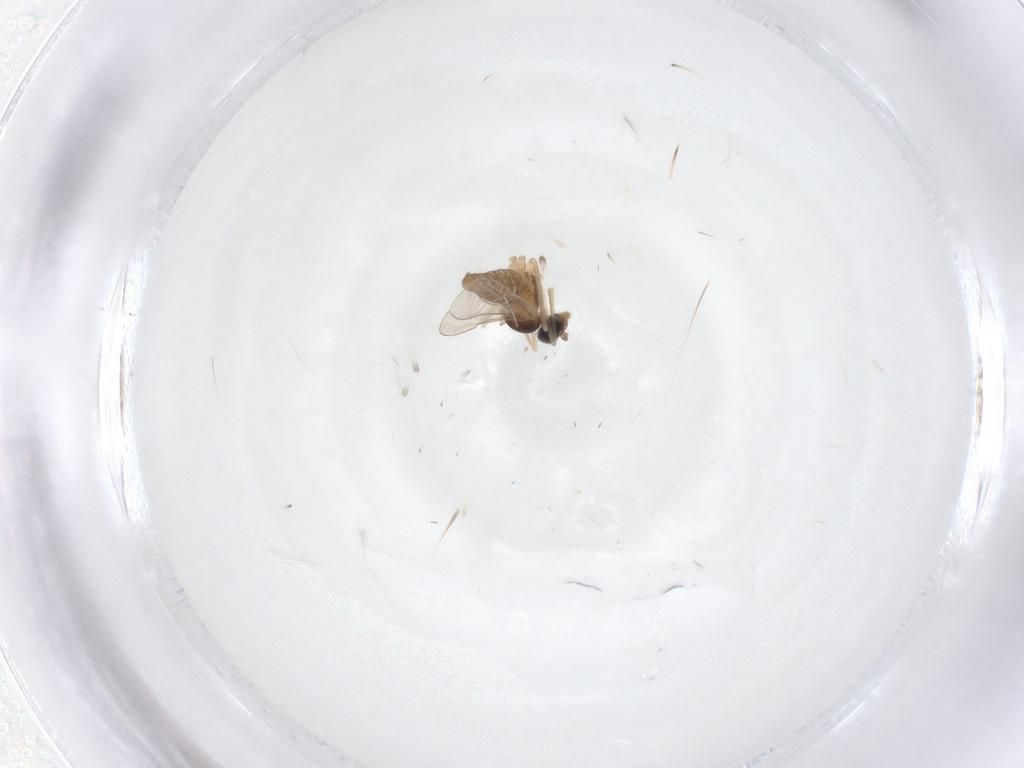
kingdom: Animalia
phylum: Arthropoda
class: Insecta
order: Diptera
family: Cecidomyiidae
